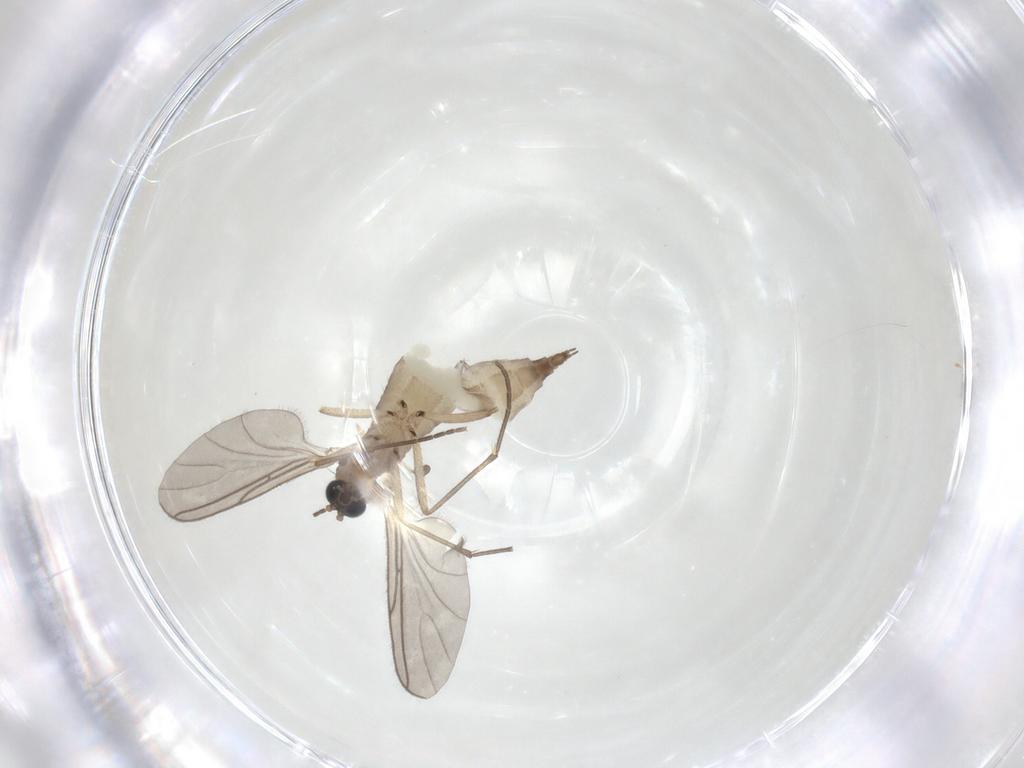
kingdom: Animalia
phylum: Arthropoda
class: Insecta
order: Diptera
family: Sciaridae
